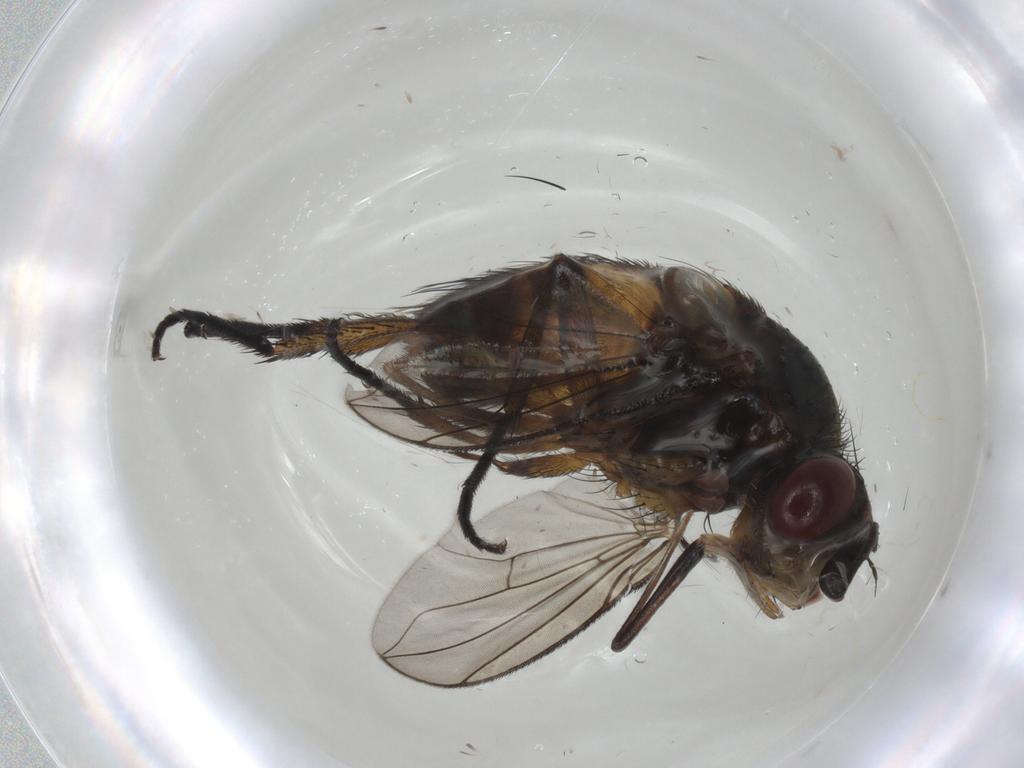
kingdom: Animalia
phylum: Arthropoda
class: Insecta
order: Diptera
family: Tachinidae
